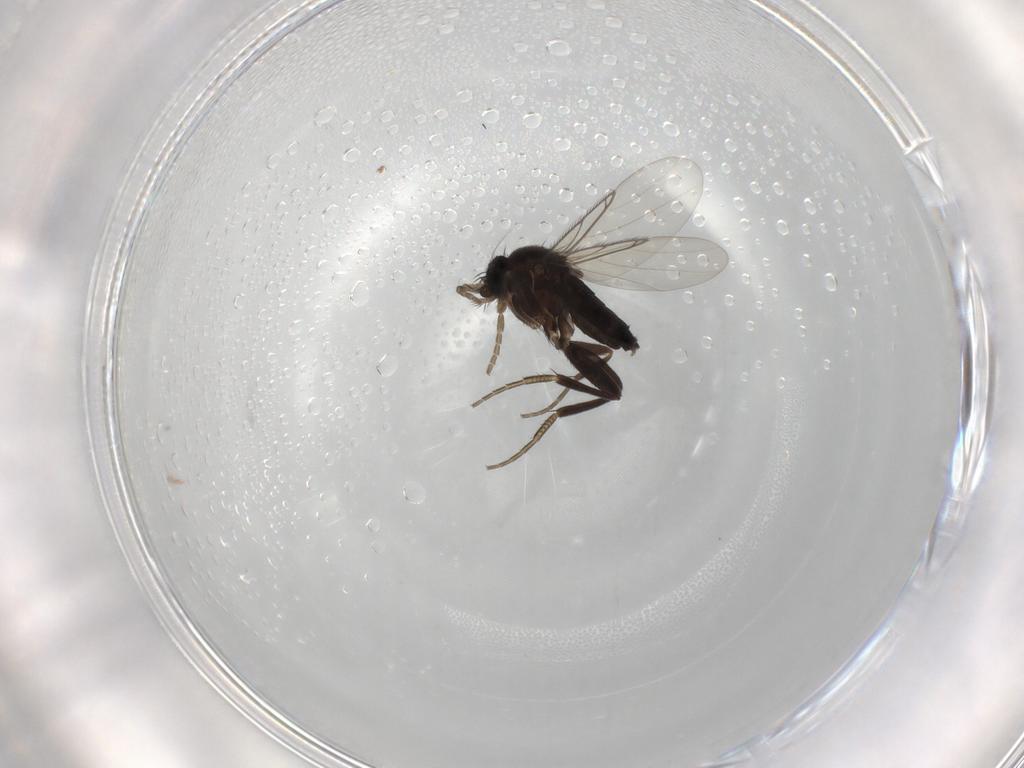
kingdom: Animalia
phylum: Arthropoda
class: Insecta
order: Diptera
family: Phoridae
